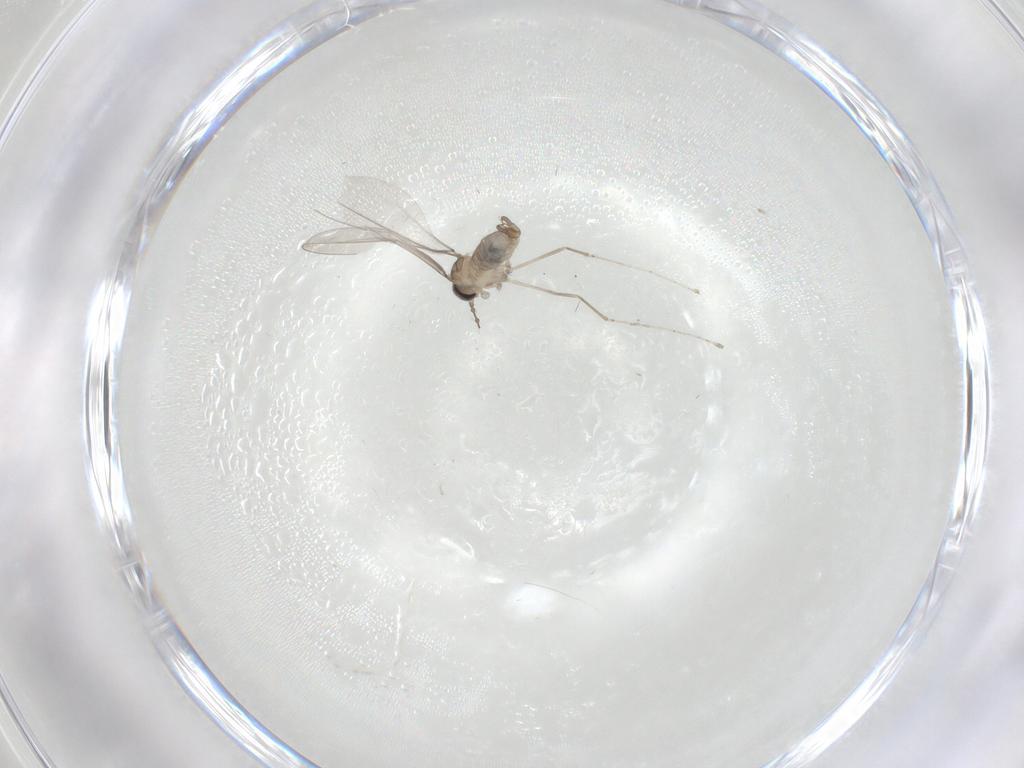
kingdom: Animalia
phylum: Arthropoda
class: Insecta
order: Diptera
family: Cecidomyiidae
